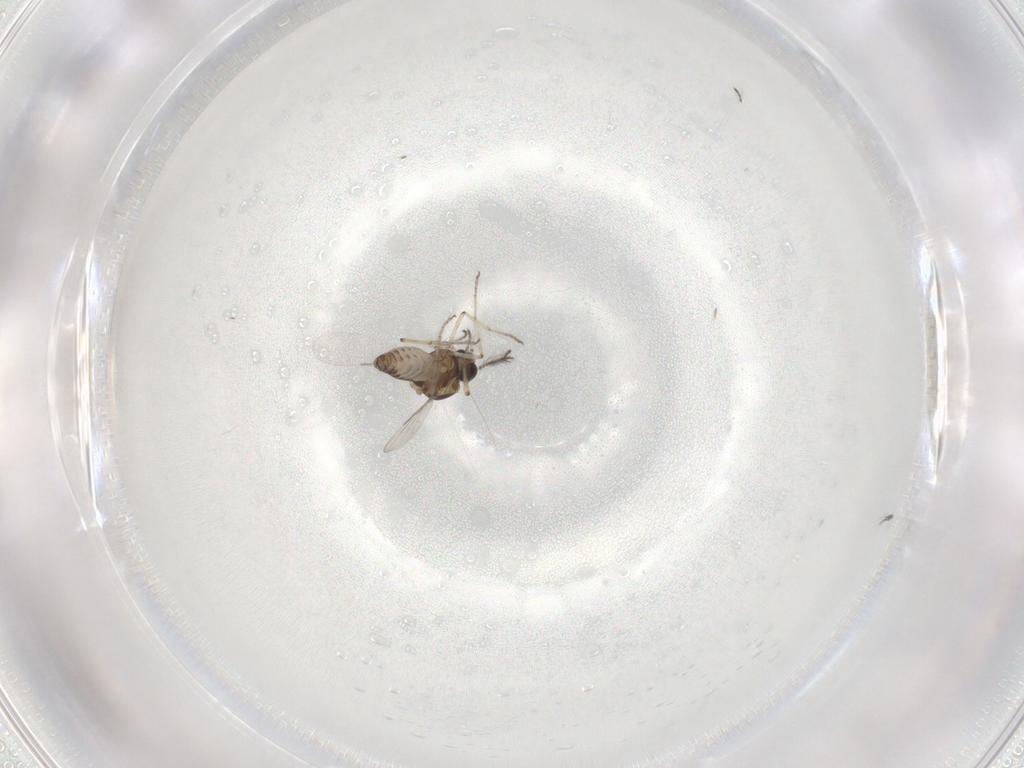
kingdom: Animalia
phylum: Arthropoda
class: Insecta
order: Diptera
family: Ceratopogonidae
